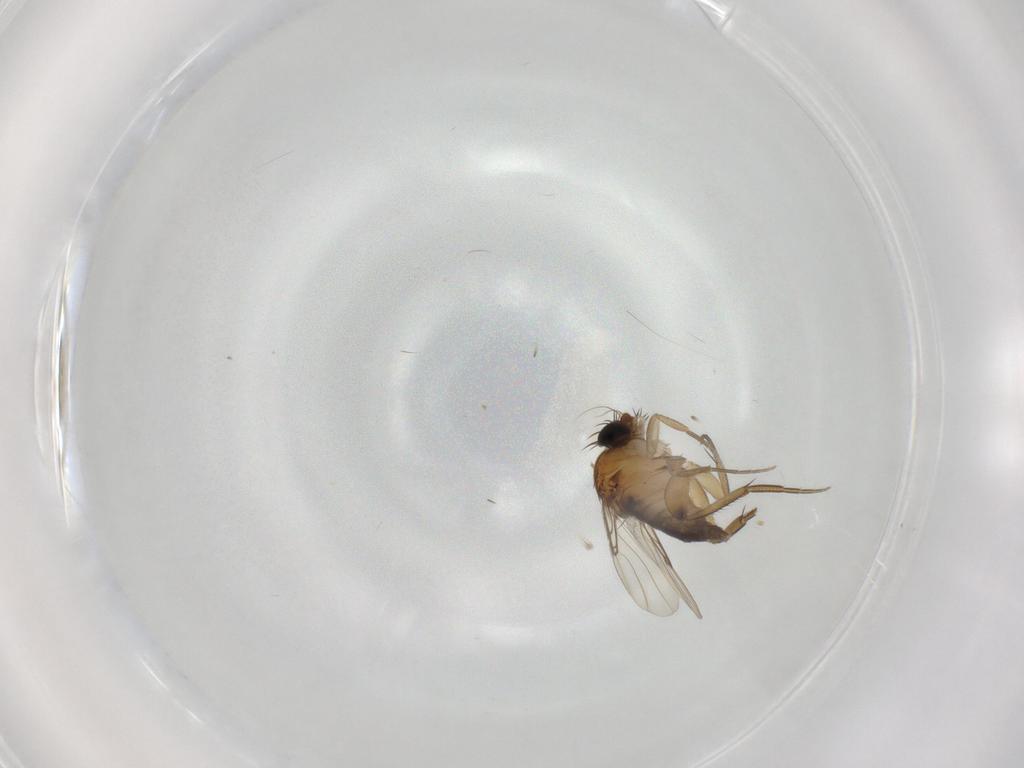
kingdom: Animalia
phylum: Arthropoda
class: Insecta
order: Diptera
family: Phoridae
